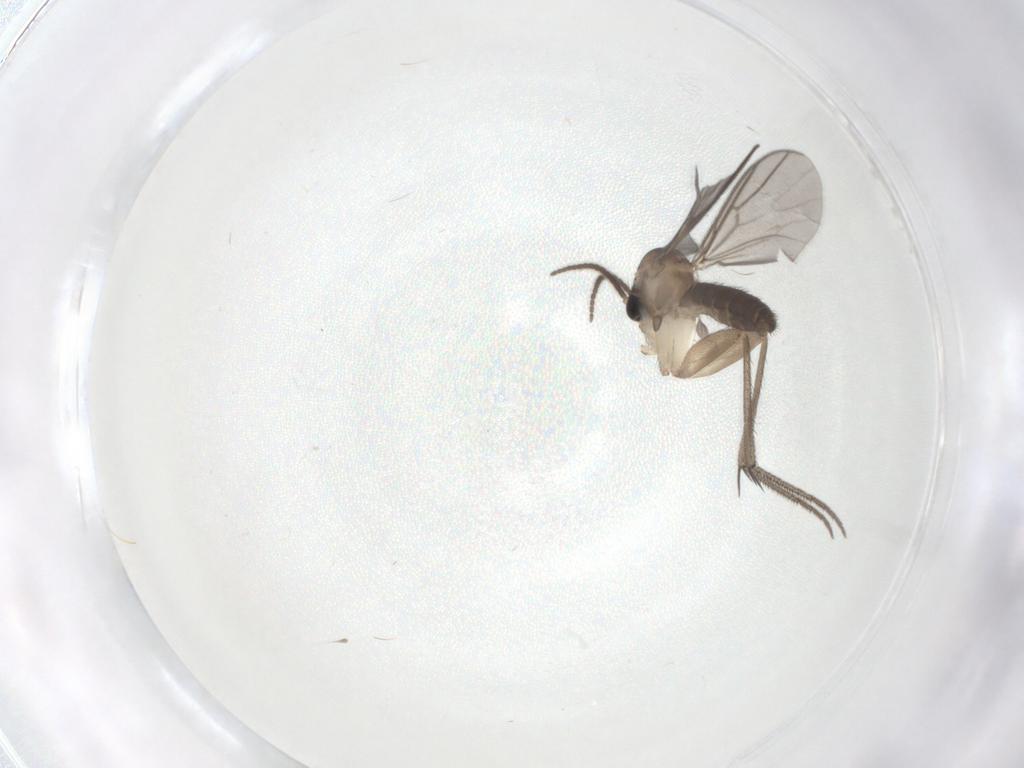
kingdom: Animalia
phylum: Arthropoda
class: Insecta
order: Diptera
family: Mycetophilidae
